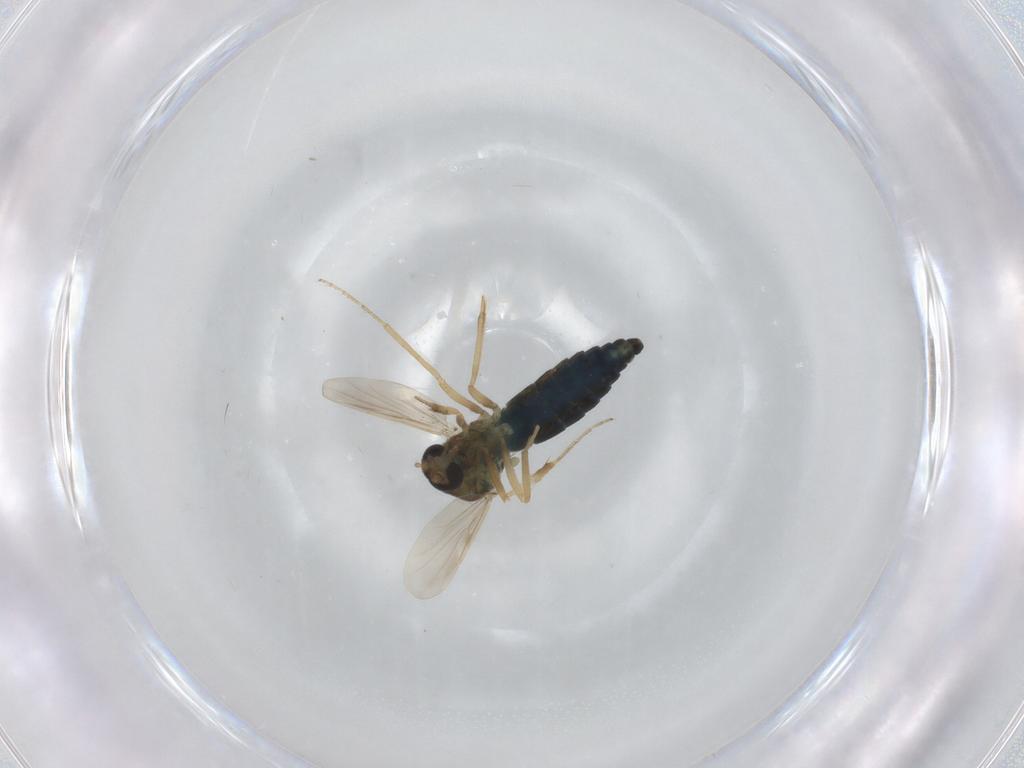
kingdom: Animalia
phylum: Arthropoda
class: Insecta
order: Diptera
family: Ceratopogonidae
